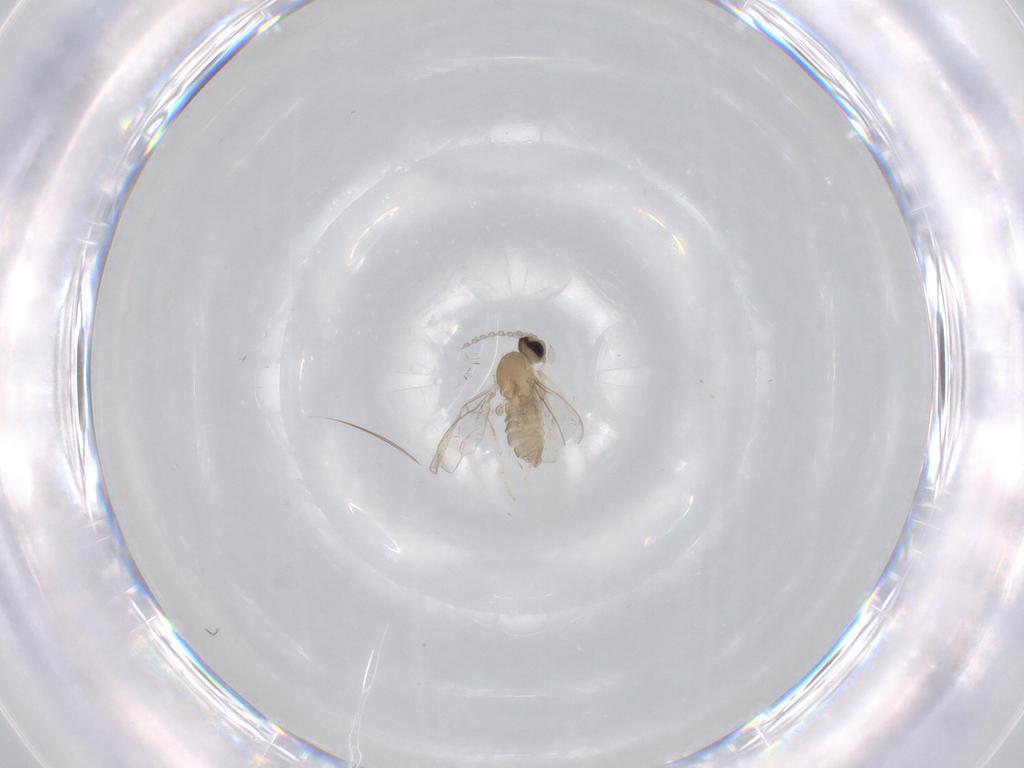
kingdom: Animalia
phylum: Arthropoda
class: Insecta
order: Diptera
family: Cecidomyiidae
